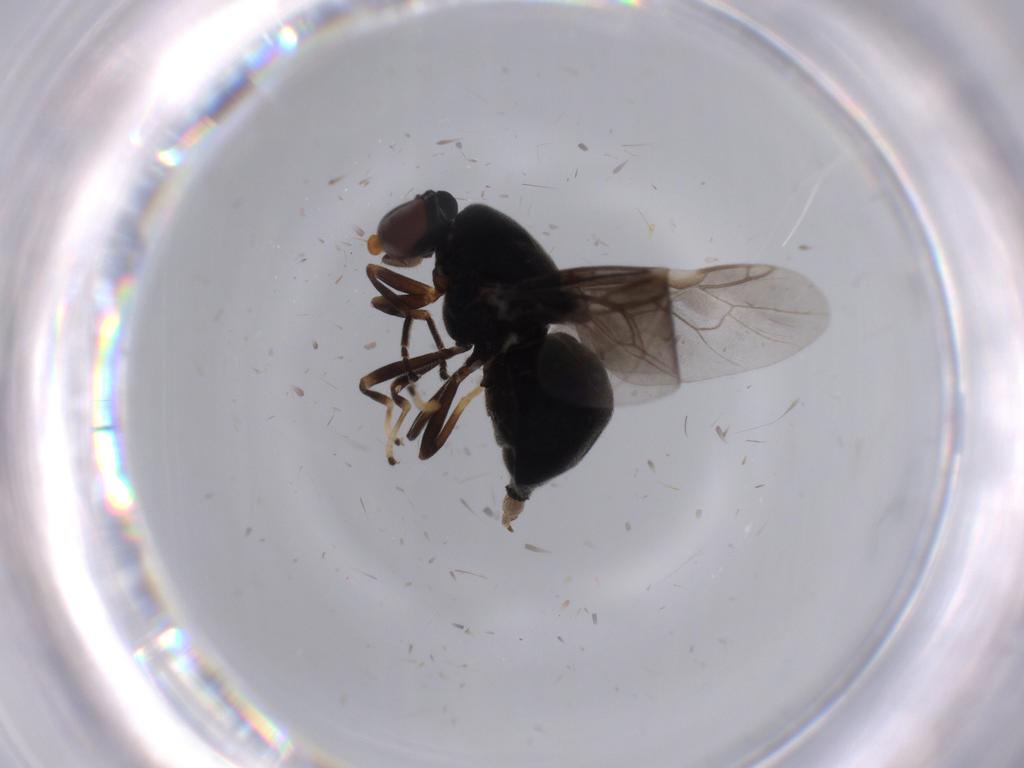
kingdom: Animalia
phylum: Arthropoda
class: Insecta
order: Diptera
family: Stratiomyidae
